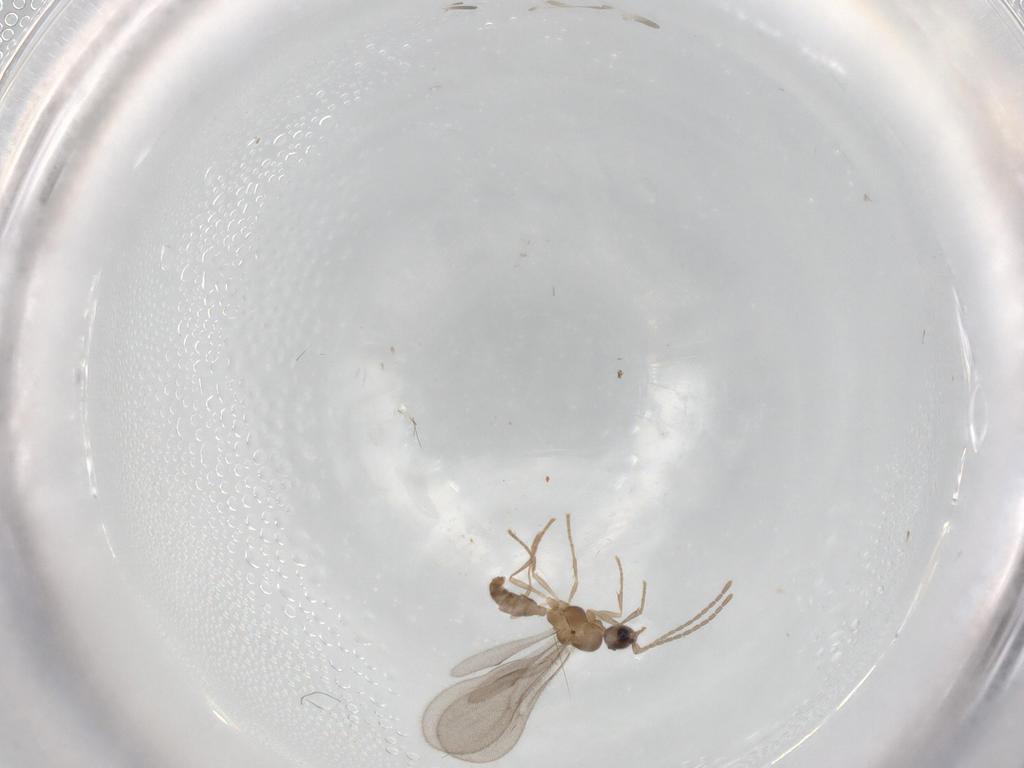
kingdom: Animalia
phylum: Arthropoda
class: Insecta
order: Hymenoptera
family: Formicidae
